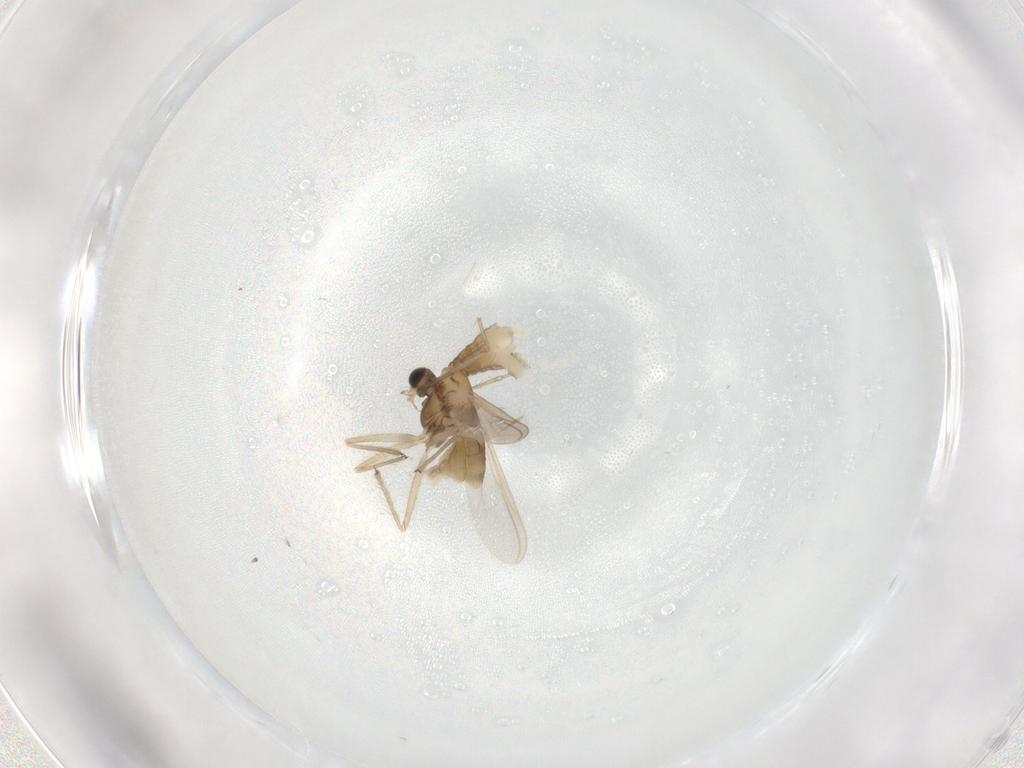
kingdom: Animalia
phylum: Arthropoda
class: Insecta
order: Diptera
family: Chironomidae
